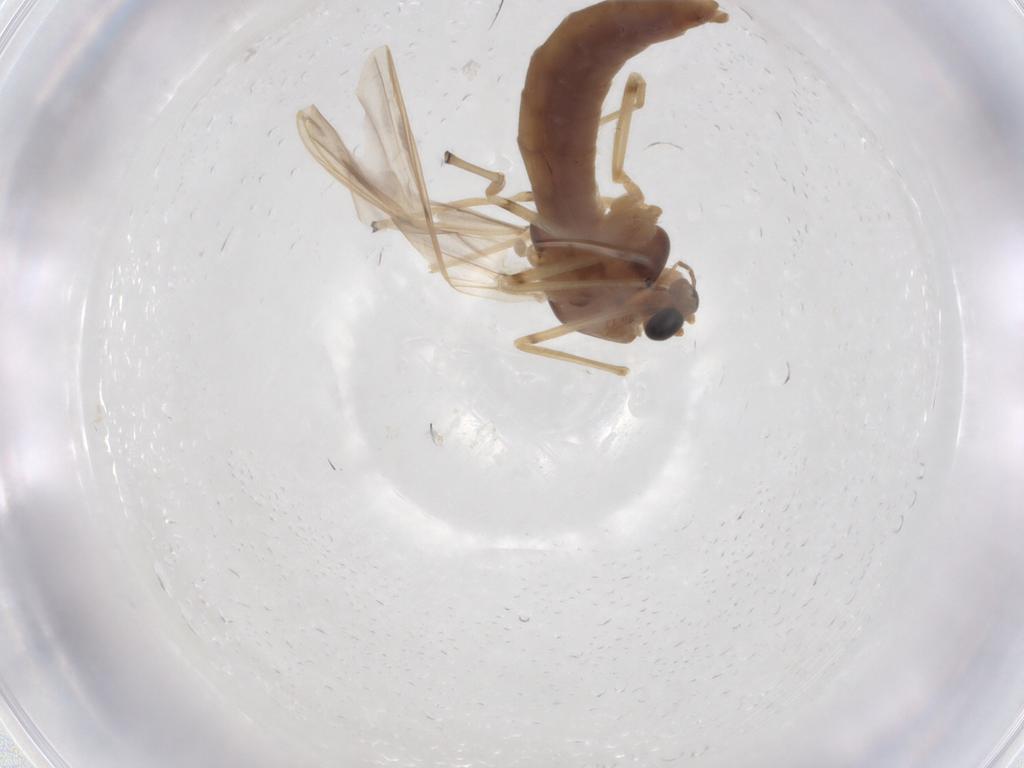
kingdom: Animalia
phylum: Arthropoda
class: Insecta
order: Diptera
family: Chironomidae
